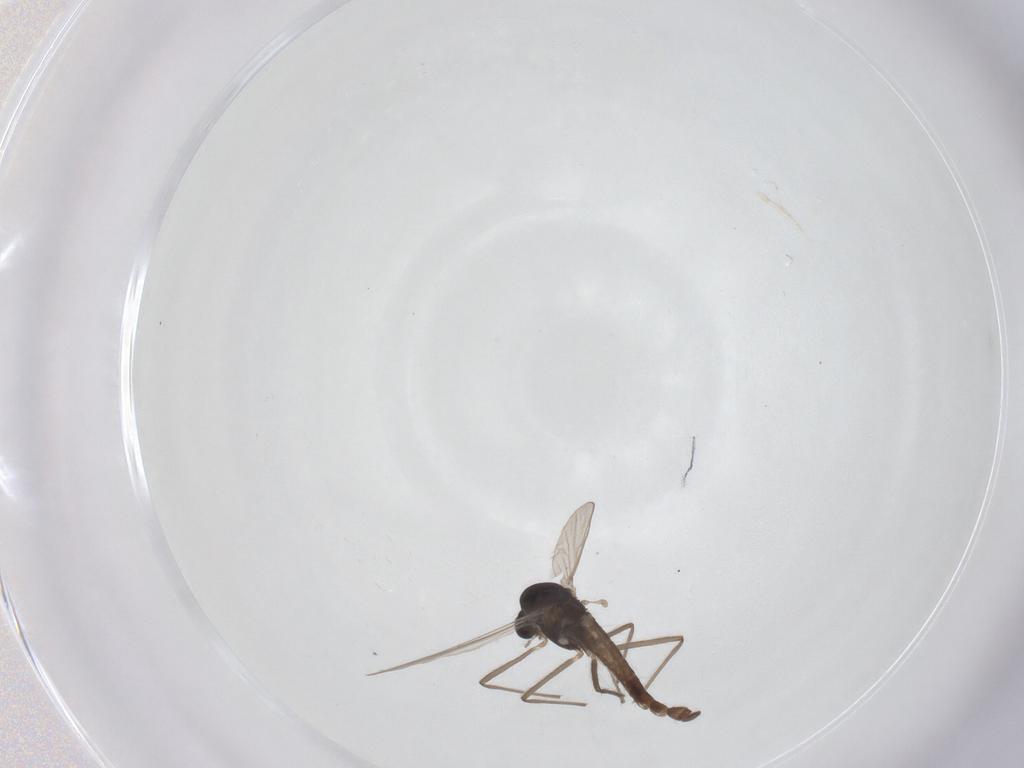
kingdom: Animalia
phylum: Arthropoda
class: Insecta
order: Diptera
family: Chironomidae
